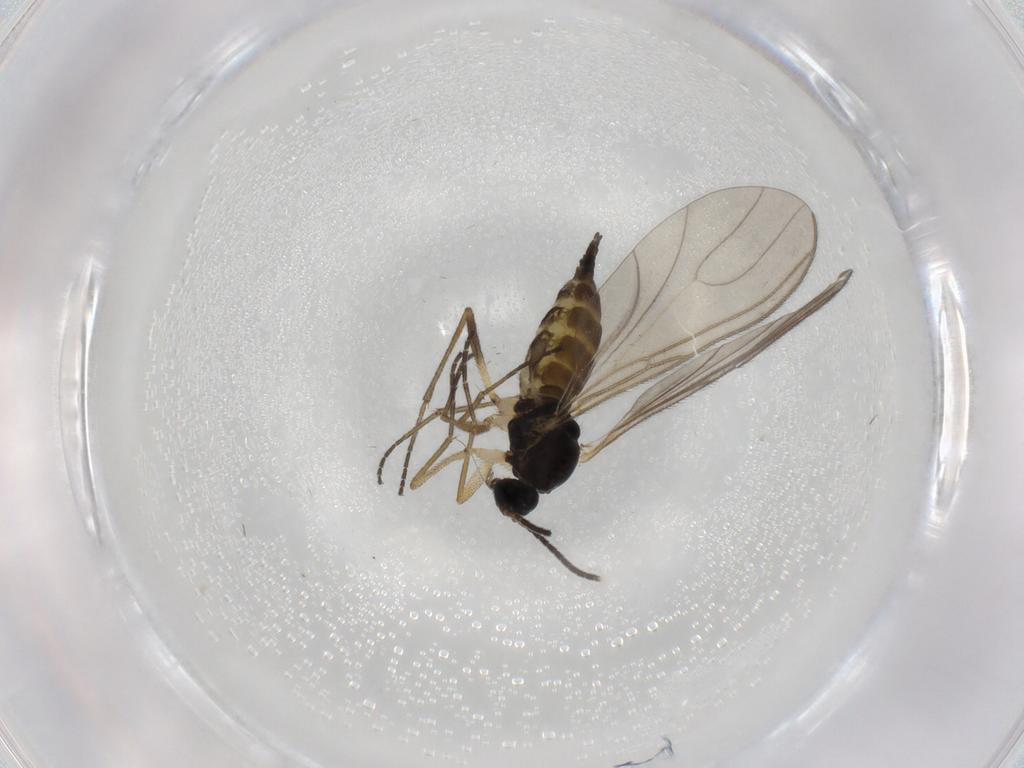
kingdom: Animalia
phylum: Arthropoda
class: Insecta
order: Diptera
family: Sciaridae
